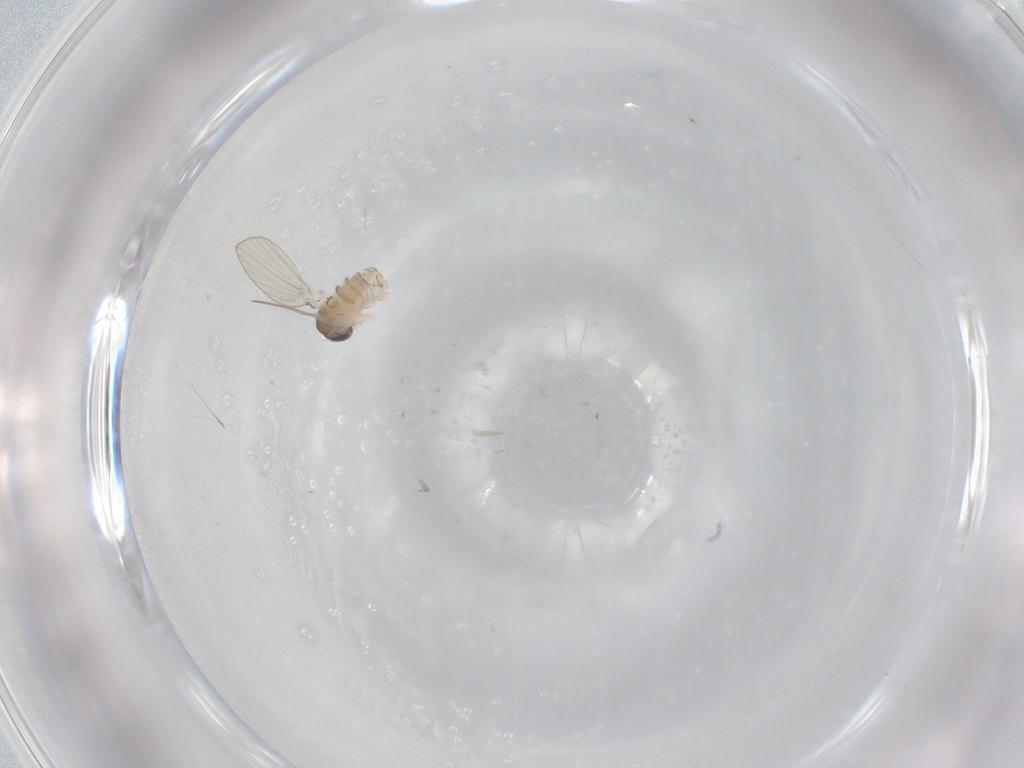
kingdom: Animalia
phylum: Arthropoda
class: Insecta
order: Diptera
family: Psychodidae
